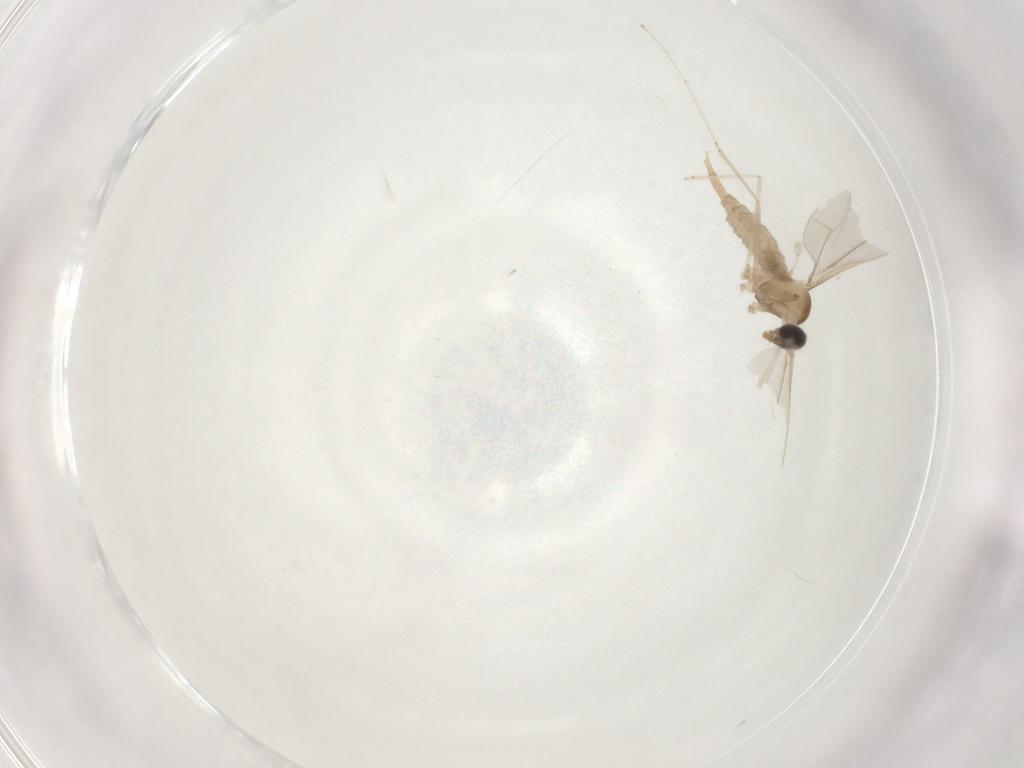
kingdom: Animalia
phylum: Arthropoda
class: Insecta
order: Diptera
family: Cecidomyiidae
